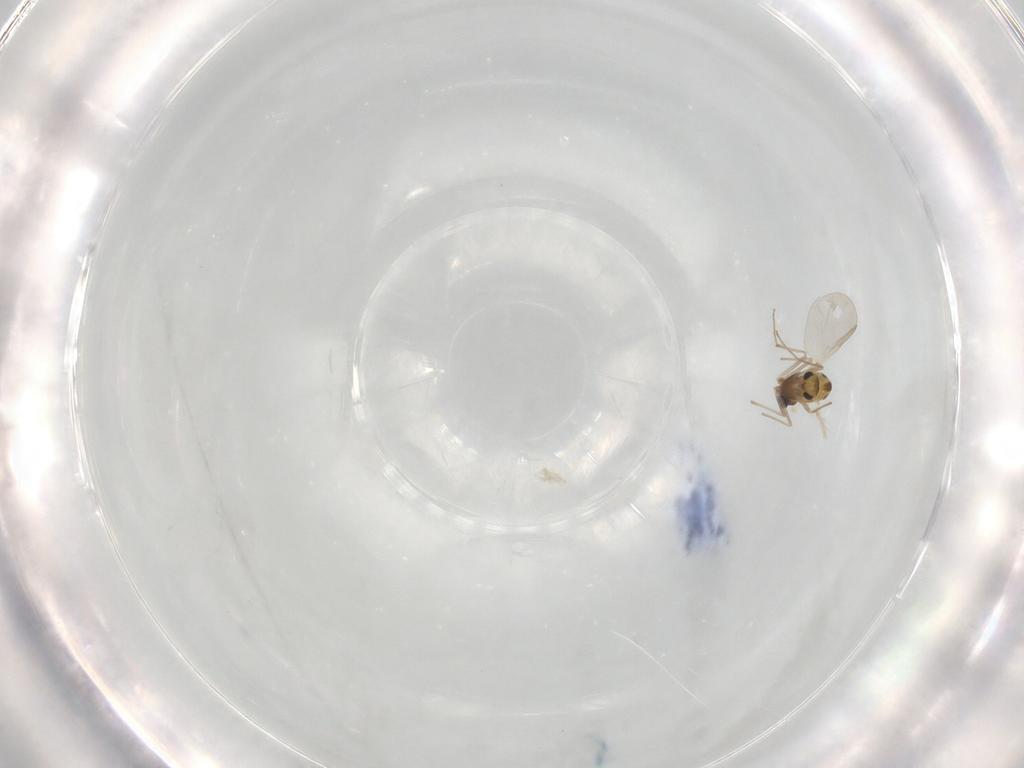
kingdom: Animalia
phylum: Arthropoda
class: Insecta
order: Diptera
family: Chironomidae
